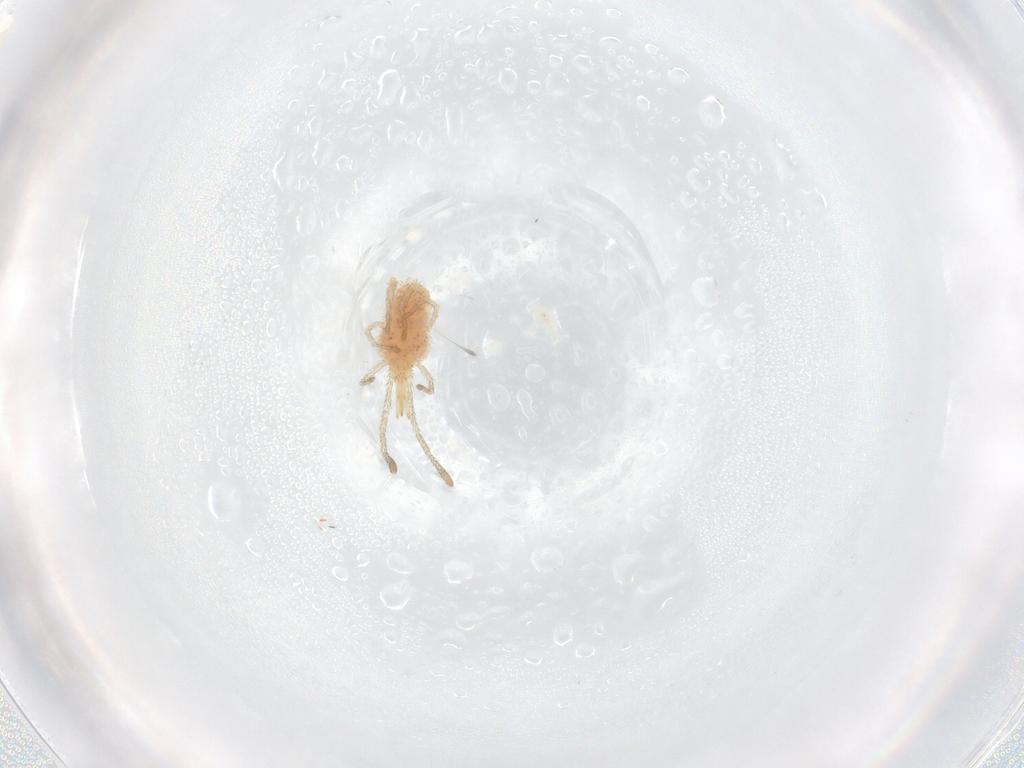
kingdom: Animalia
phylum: Arthropoda
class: Arachnida
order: Trombidiformes
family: Smarididae
